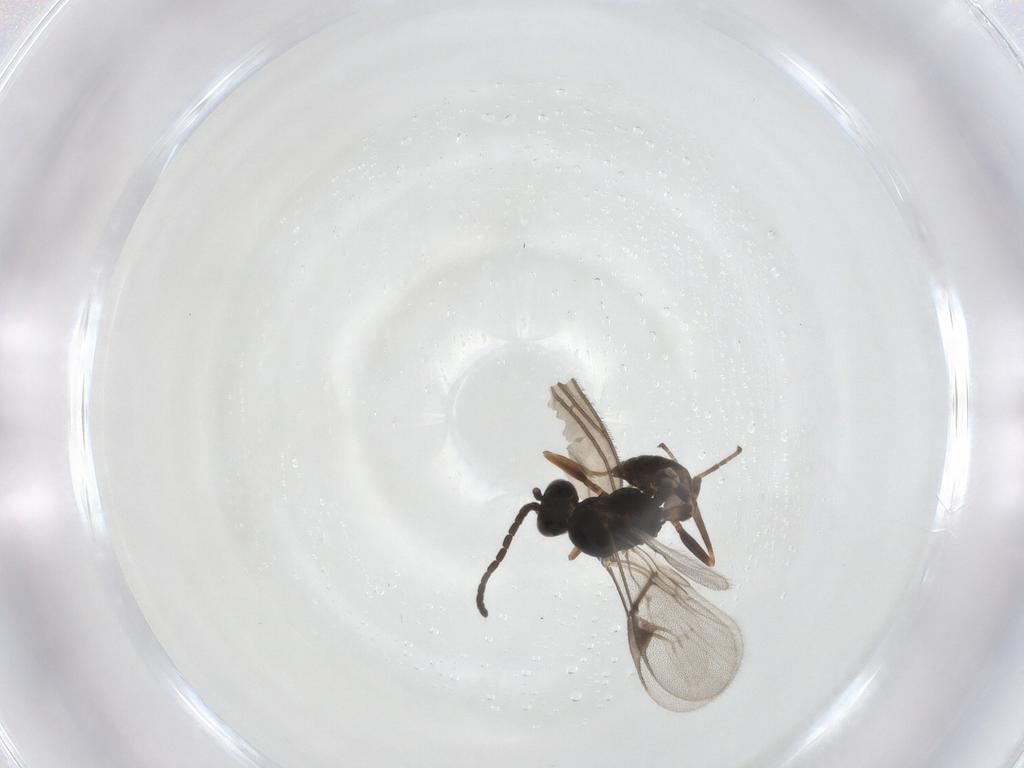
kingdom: Animalia
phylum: Arthropoda
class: Insecta
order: Hymenoptera
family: Braconidae
